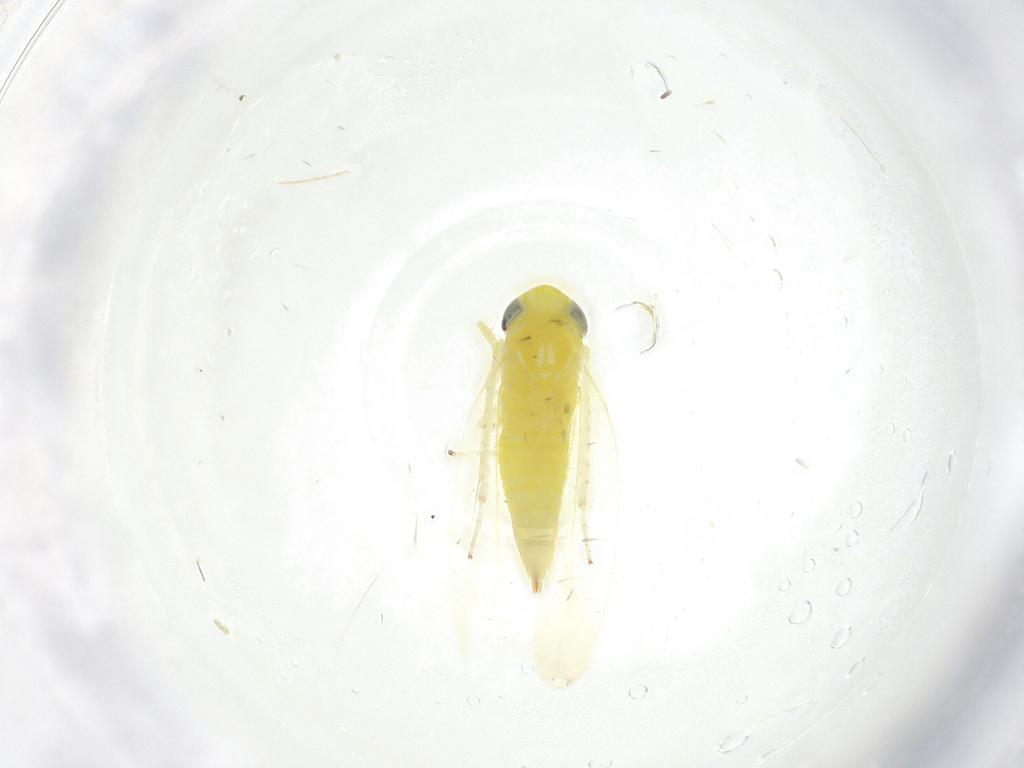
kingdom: Animalia
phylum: Arthropoda
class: Insecta
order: Hemiptera
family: Cicadellidae
